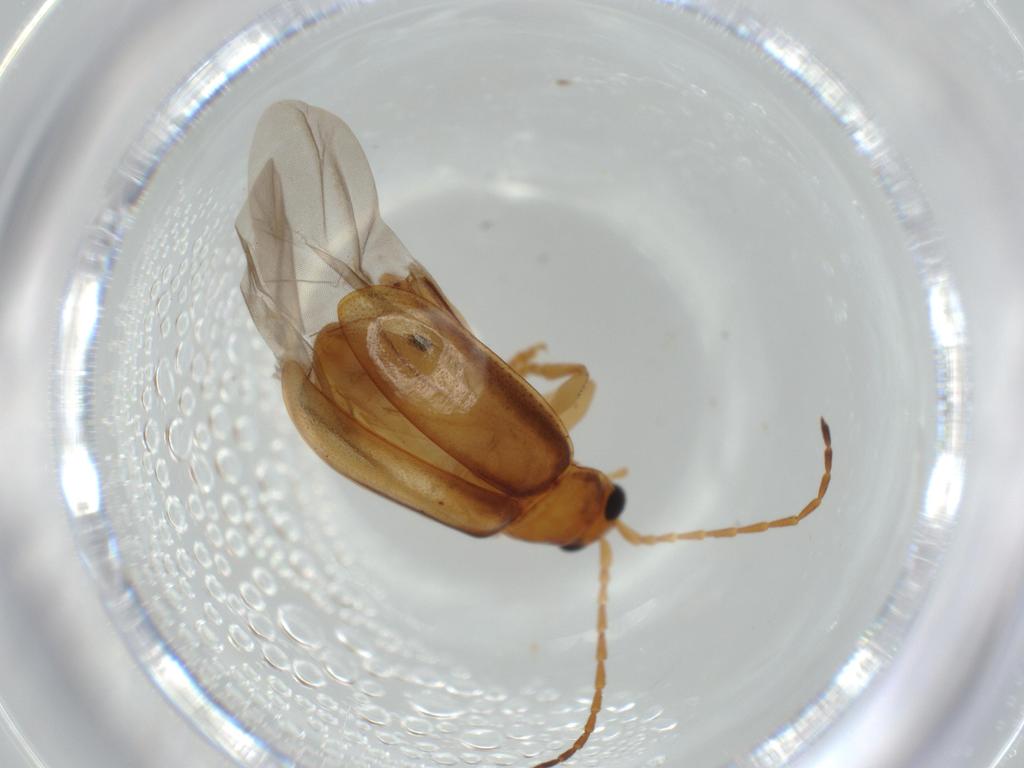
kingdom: Animalia
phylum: Arthropoda
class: Insecta
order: Coleoptera
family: Chrysomelidae
